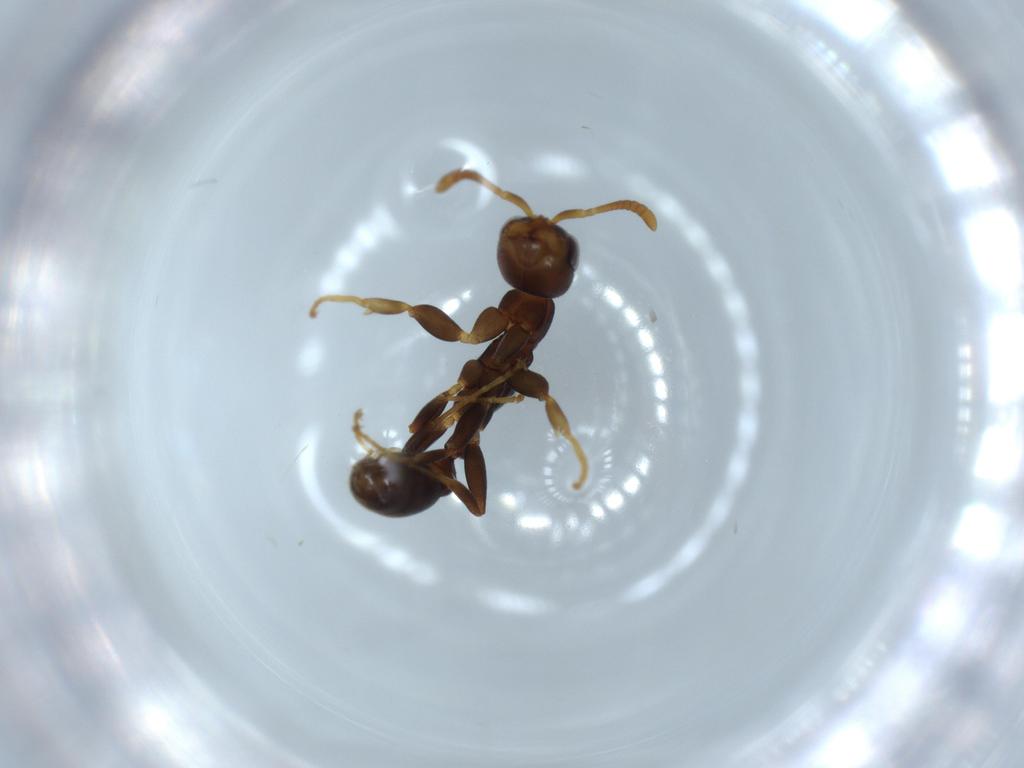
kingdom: Animalia
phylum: Arthropoda
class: Insecta
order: Hymenoptera
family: Formicidae
